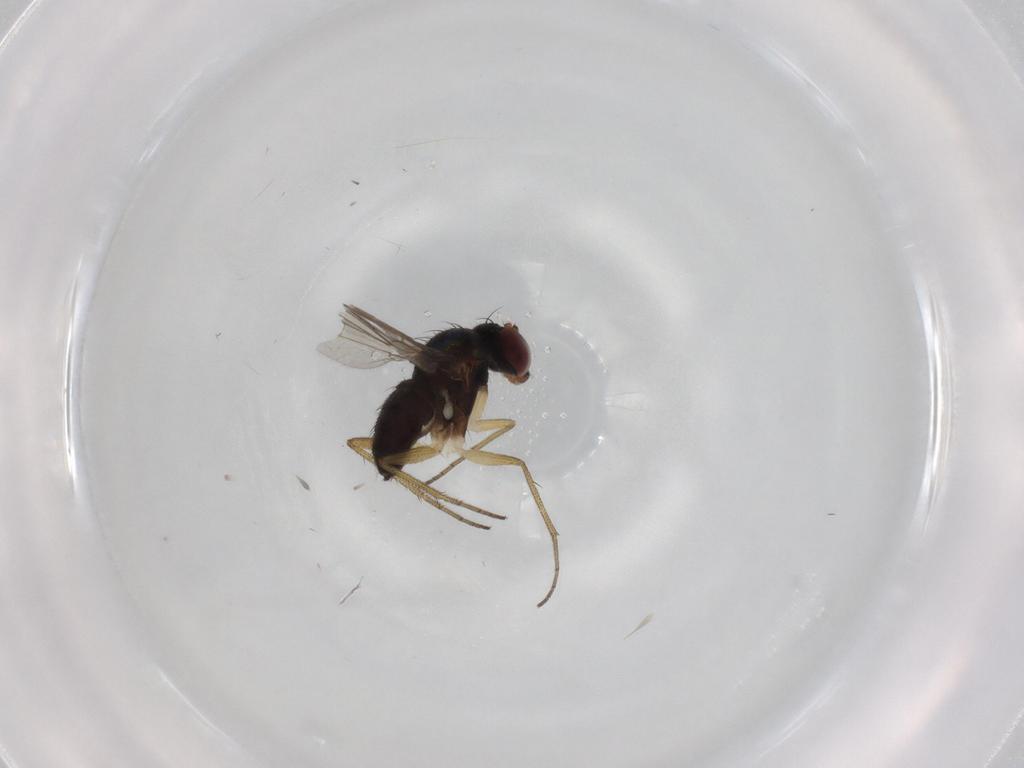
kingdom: Animalia
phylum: Arthropoda
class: Insecta
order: Diptera
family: Dolichopodidae
